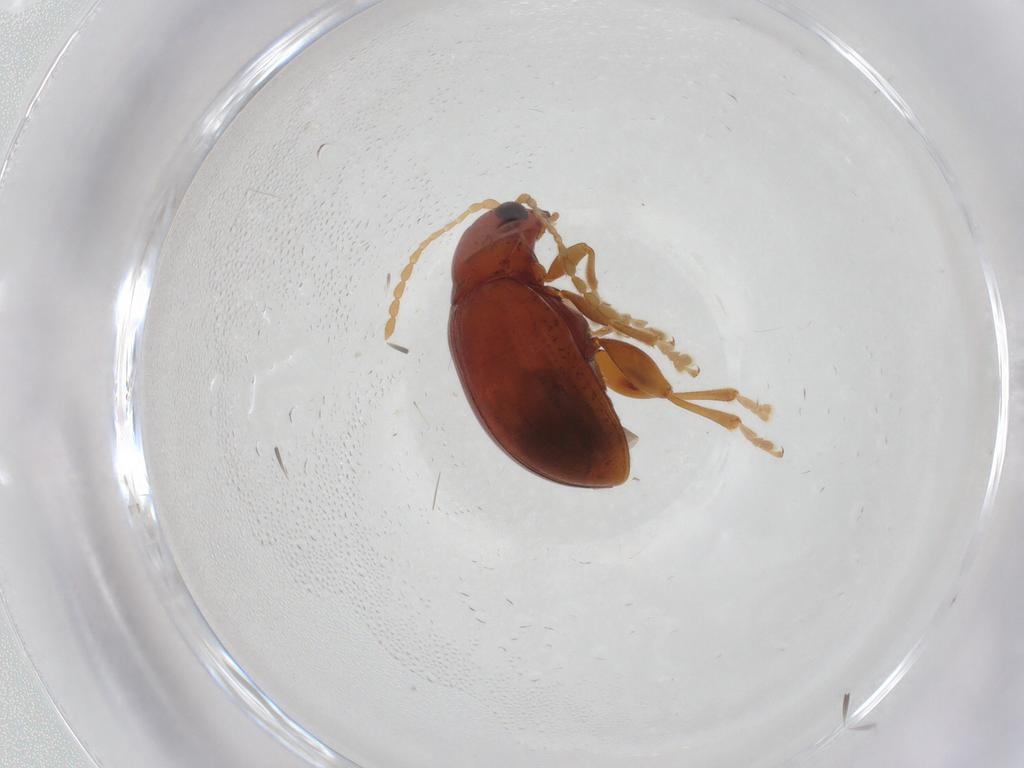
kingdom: Animalia
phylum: Arthropoda
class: Insecta
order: Coleoptera
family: Chrysomelidae
